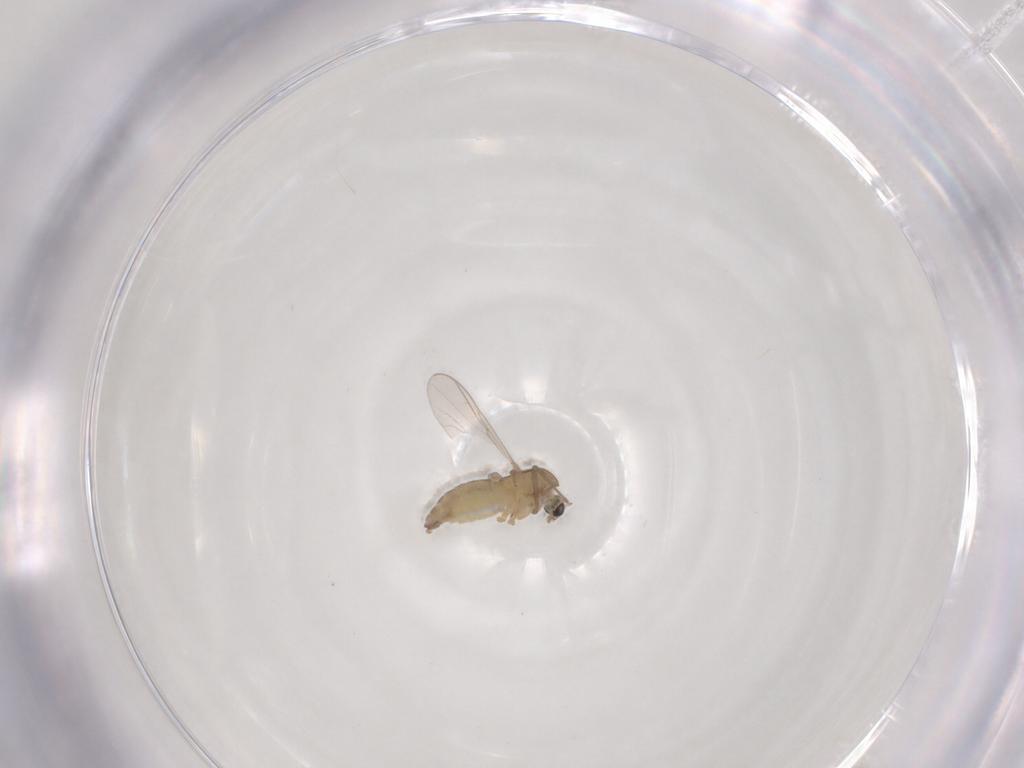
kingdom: Animalia
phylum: Arthropoda
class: Insecta
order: Diptera
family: Chironomidae
